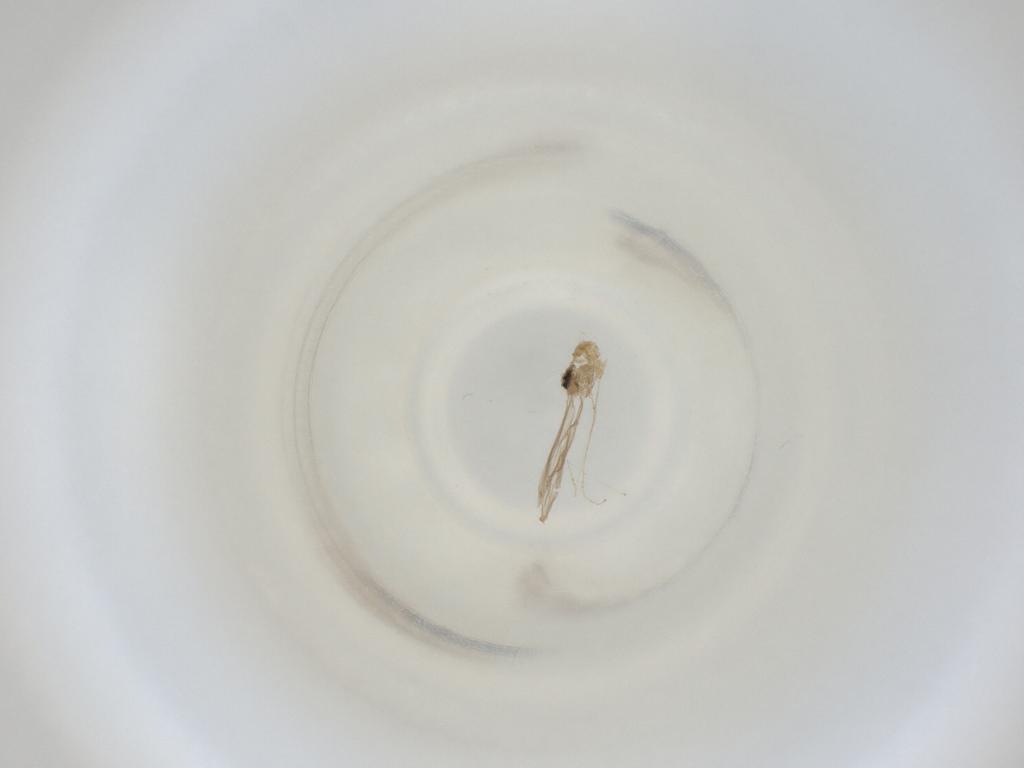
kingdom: Animalia
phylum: Arthropoda
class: Insecta
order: Diptera
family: Cecidomyiidae
